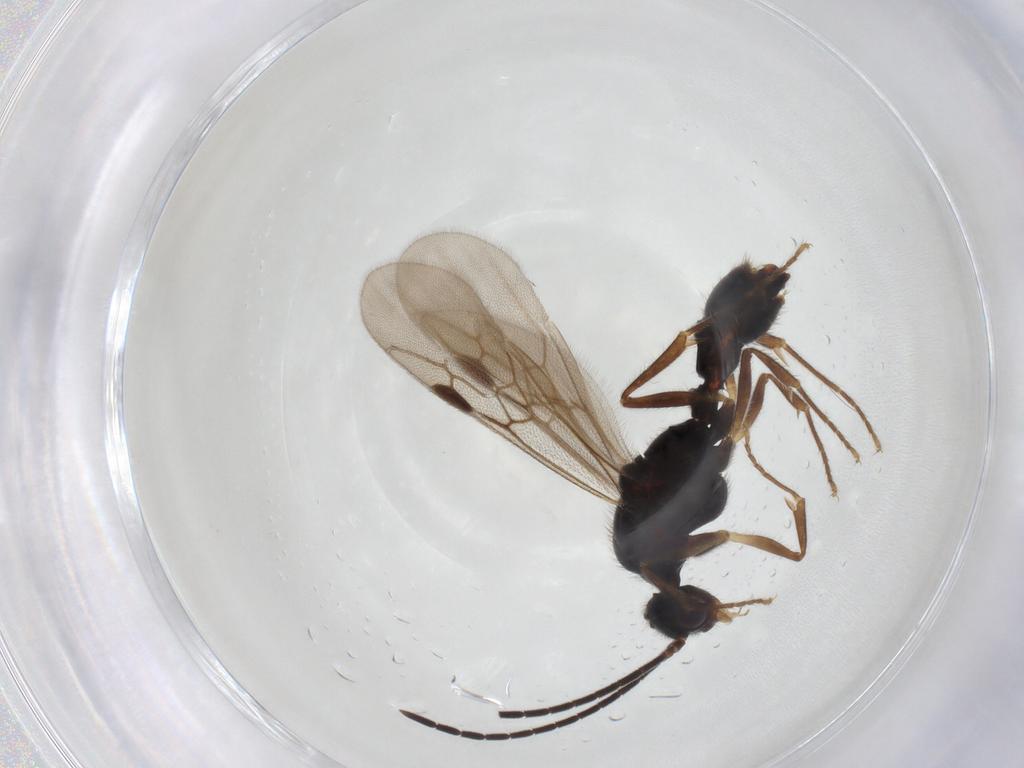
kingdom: Animalia
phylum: Arthropoda
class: Insecta
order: Hymenoptera
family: Formicidae
